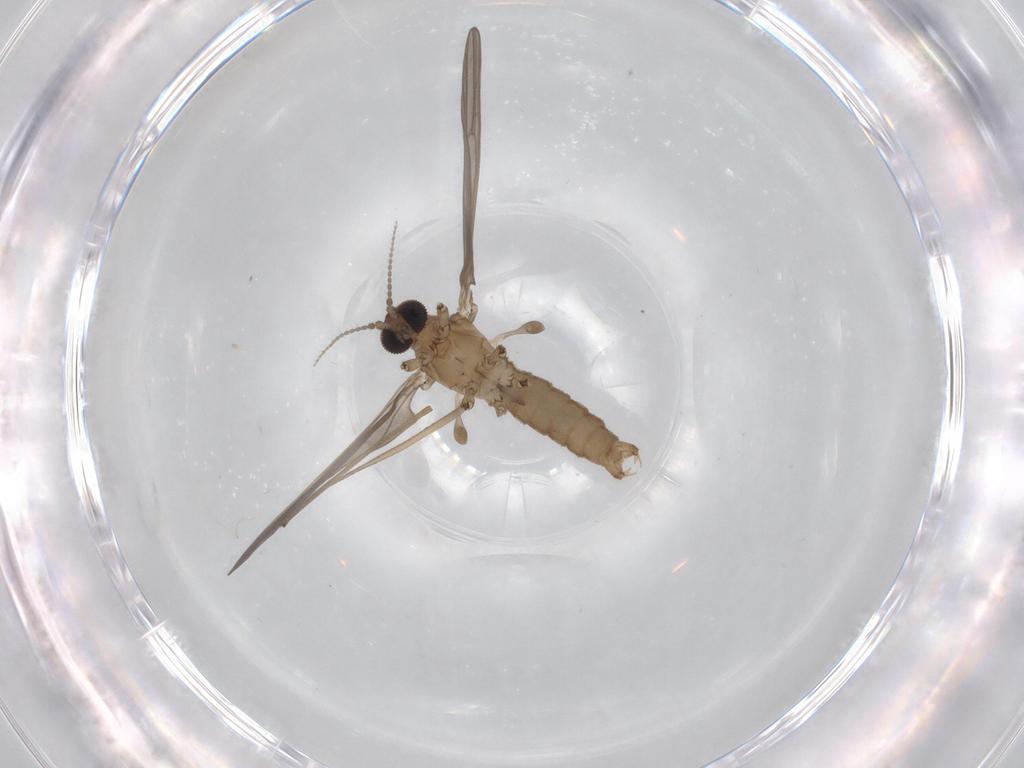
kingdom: Animalia
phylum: Arthropoda
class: Insecta
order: Diptera
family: Limoniidae
